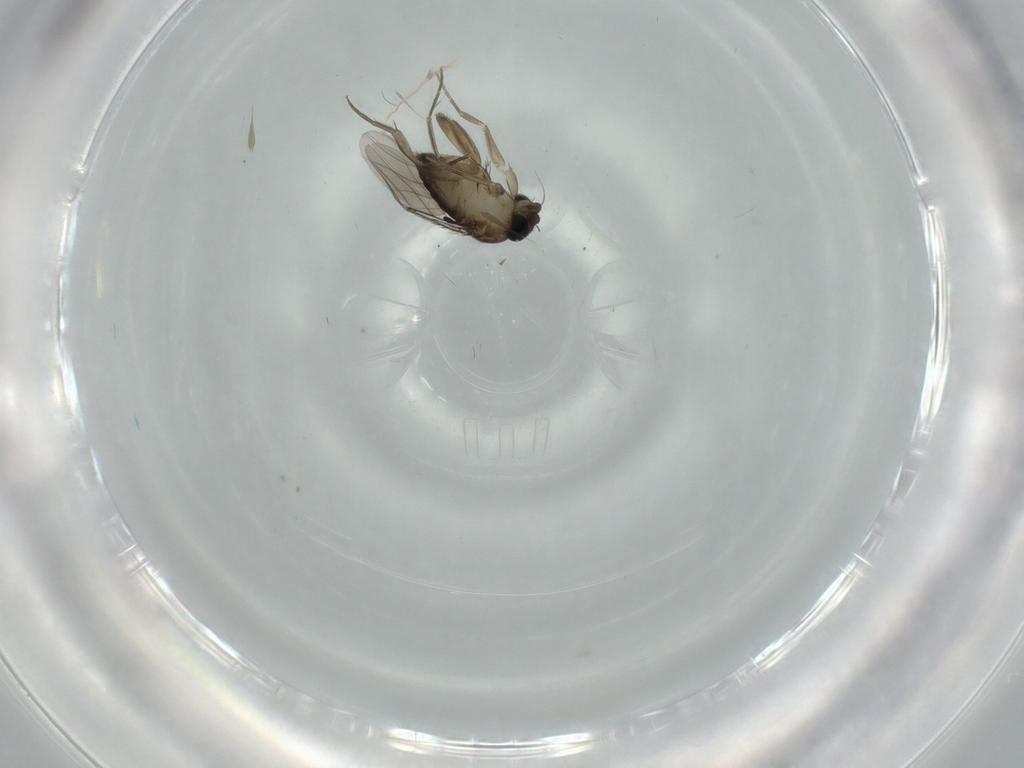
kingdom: Animalia
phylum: Arthropoda
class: Insecta
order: Diptera
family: Phoridae
